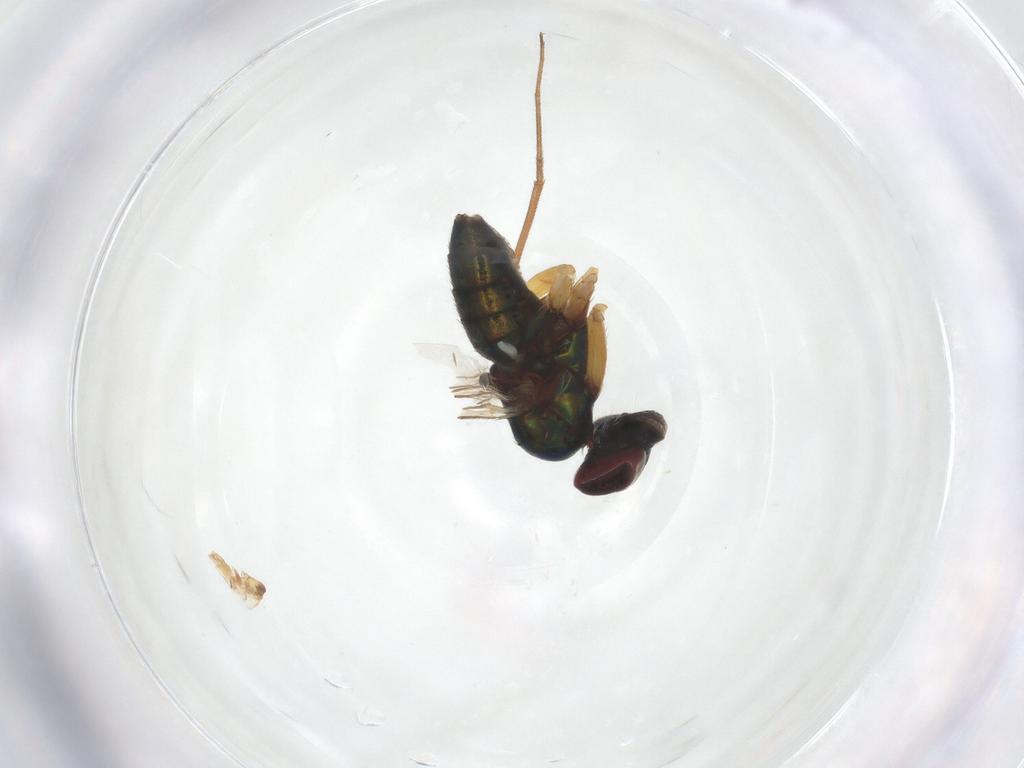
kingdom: Animalia
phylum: Arthropoda
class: Insecta
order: Diptera
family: Dolichopodidae
